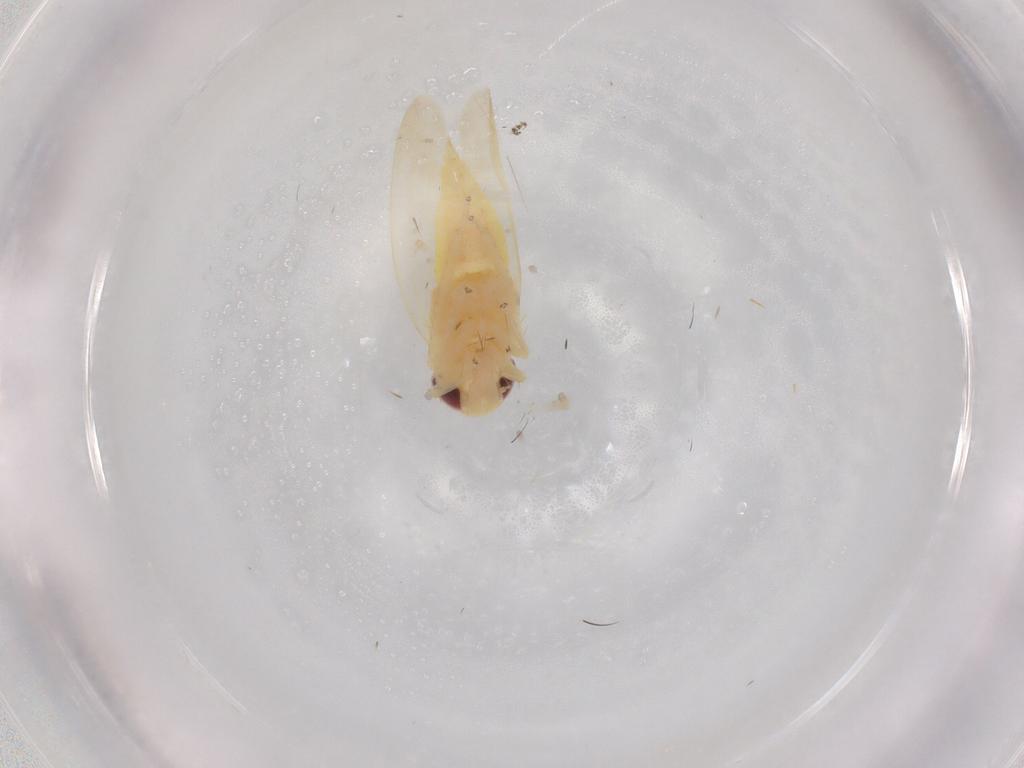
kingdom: Animalia
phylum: Arthropoda
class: Insecta
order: Hemiptera
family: Cicadellidae
